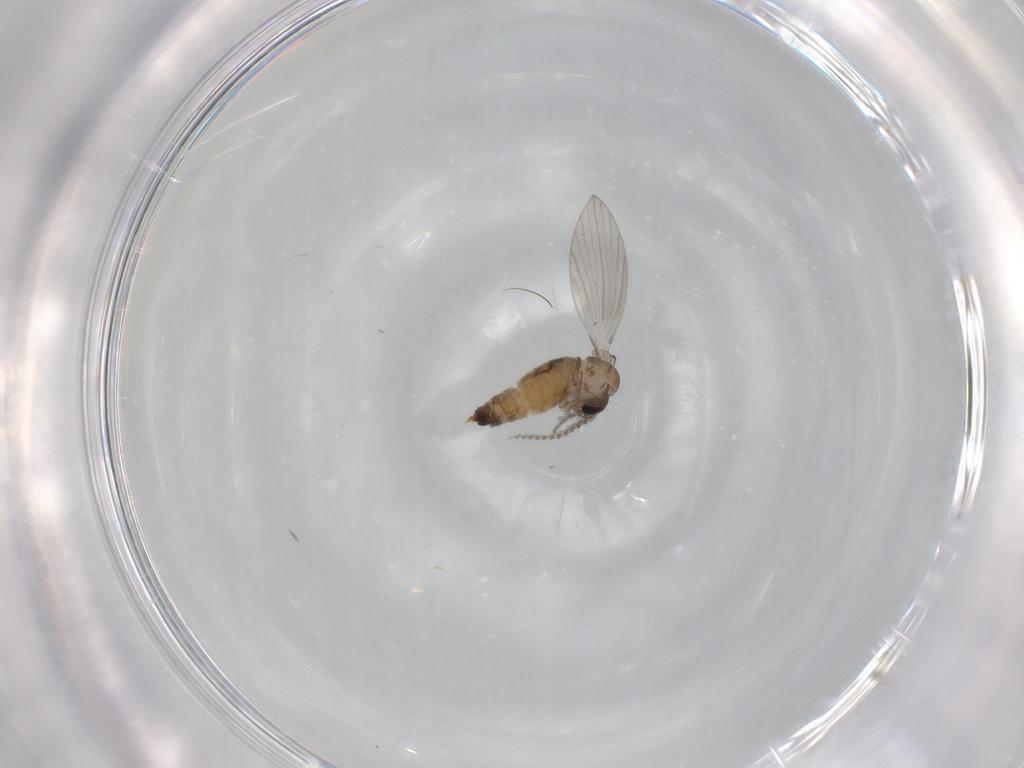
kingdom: Animalia
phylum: Arthropoda
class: Insecta
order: Diptera
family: Psychodidae
